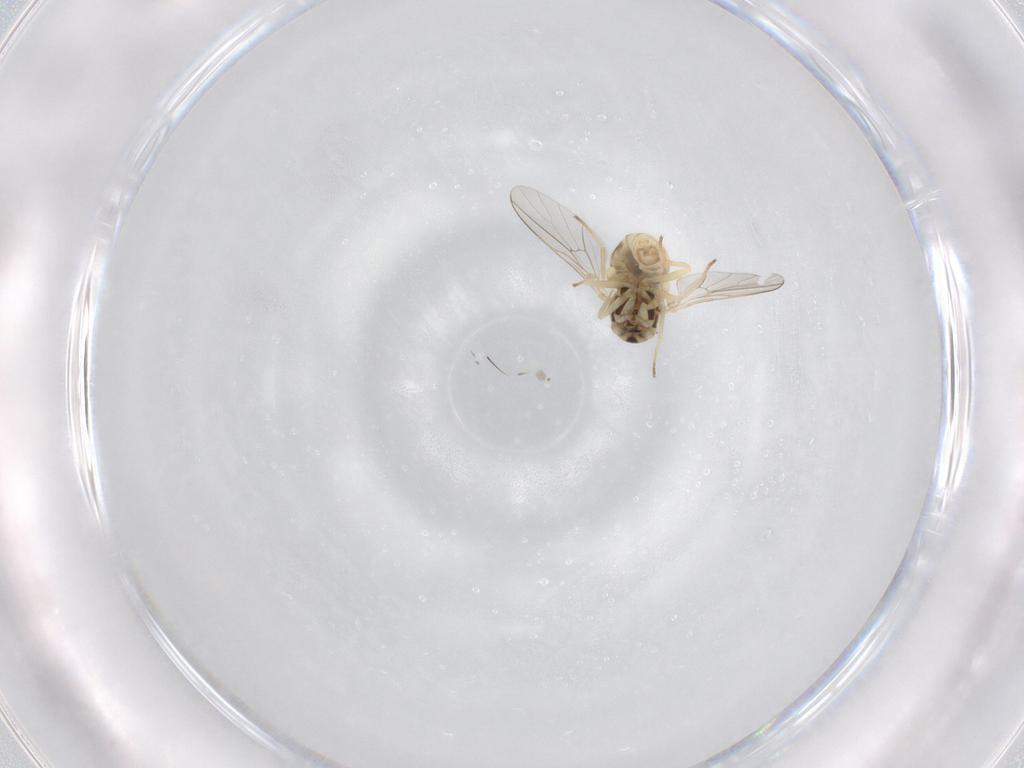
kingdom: Animalia
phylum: Arthropoda
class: Insecta
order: Diptera
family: Bombyliidae
